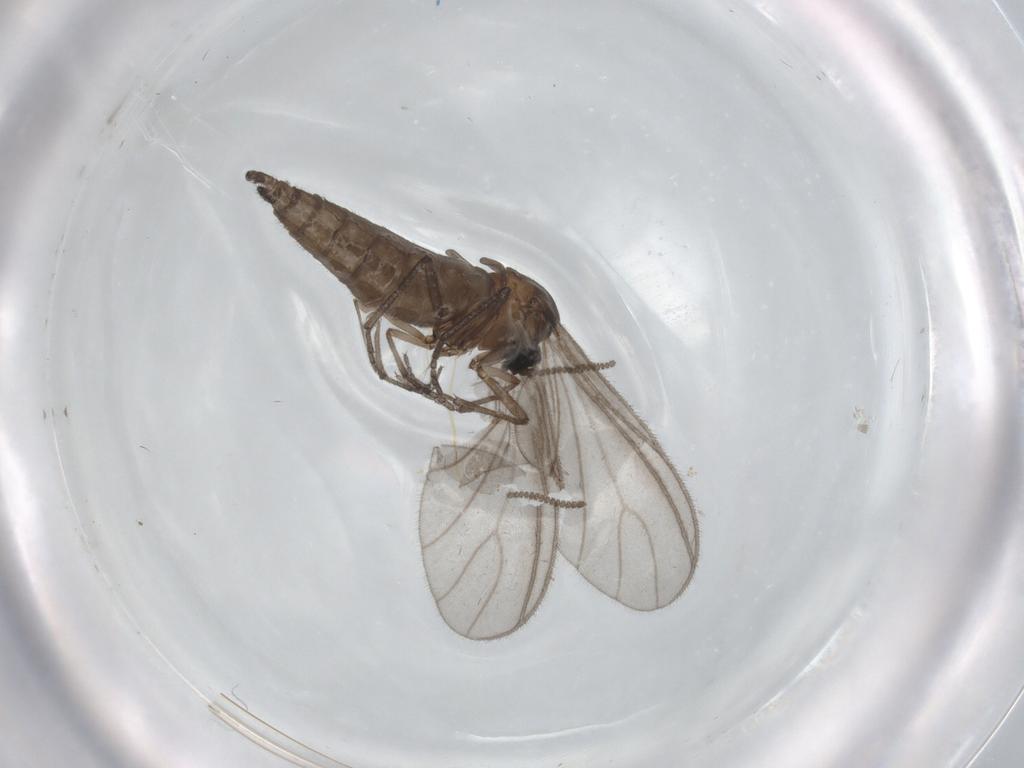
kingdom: Animalia
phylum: Arthropoda
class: Insecta
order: Diptera
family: Sciaridae
